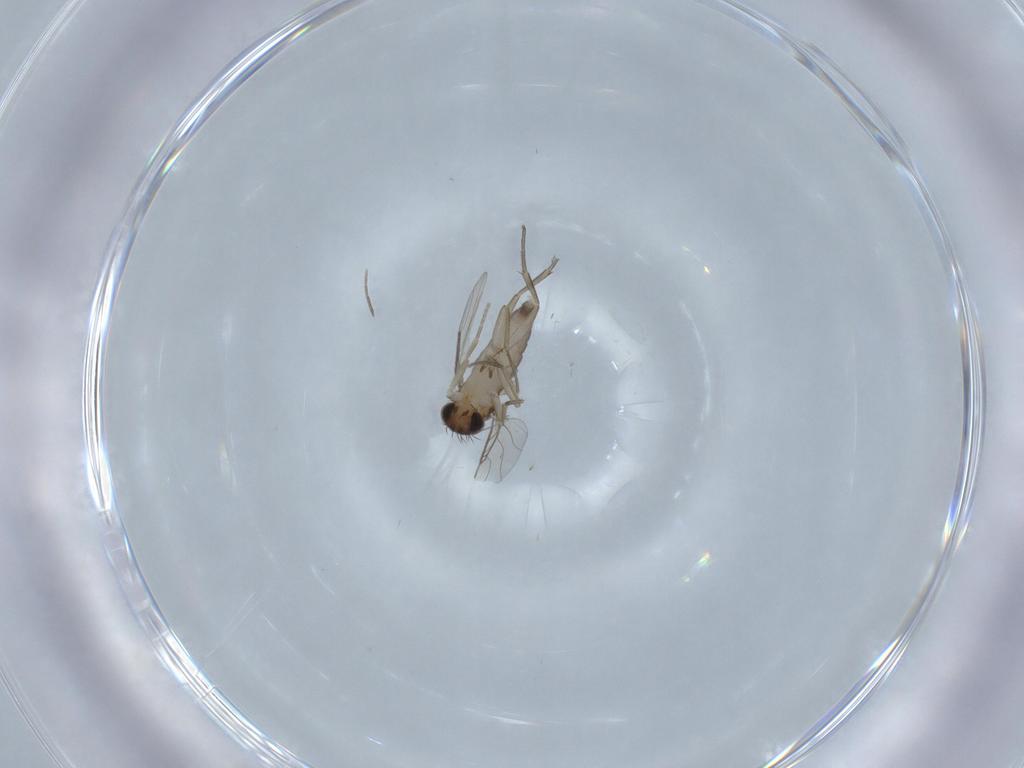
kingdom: Animalia
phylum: Arthropoda
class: Insecta
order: Diptera
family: Phoridae
